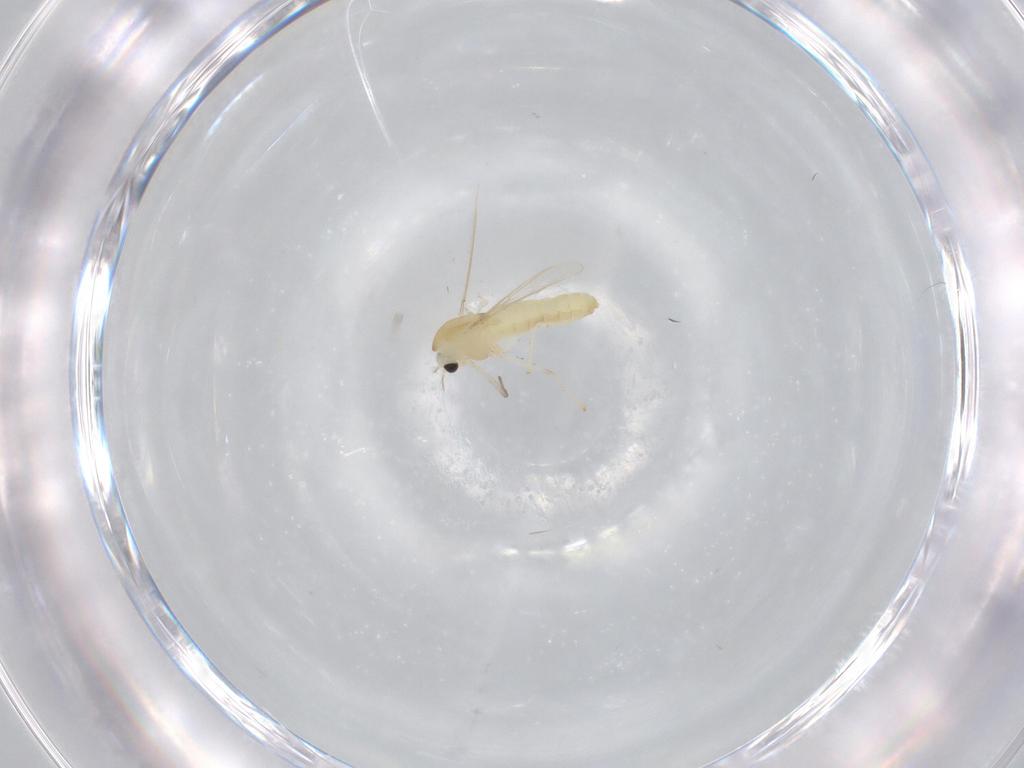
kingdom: Animalia
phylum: Arthropoda
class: Insecta
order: Diptera
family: Chironomidae
